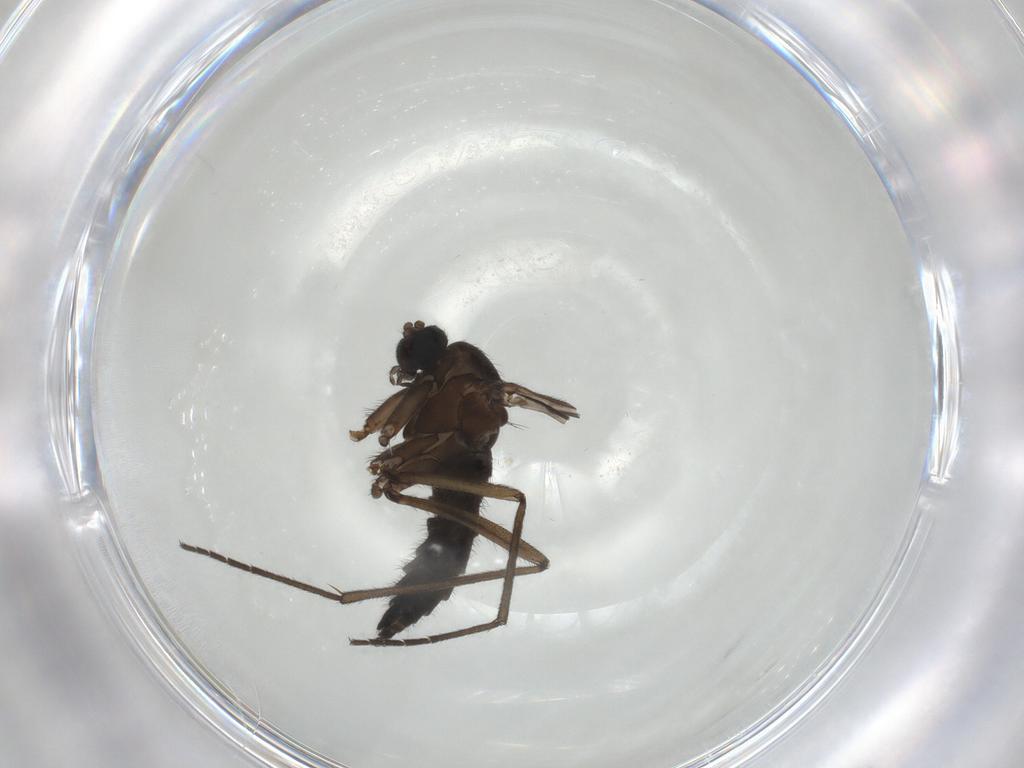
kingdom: Animalia
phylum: Arthropoda
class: Insecta
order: Diptera
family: Sciaridae
